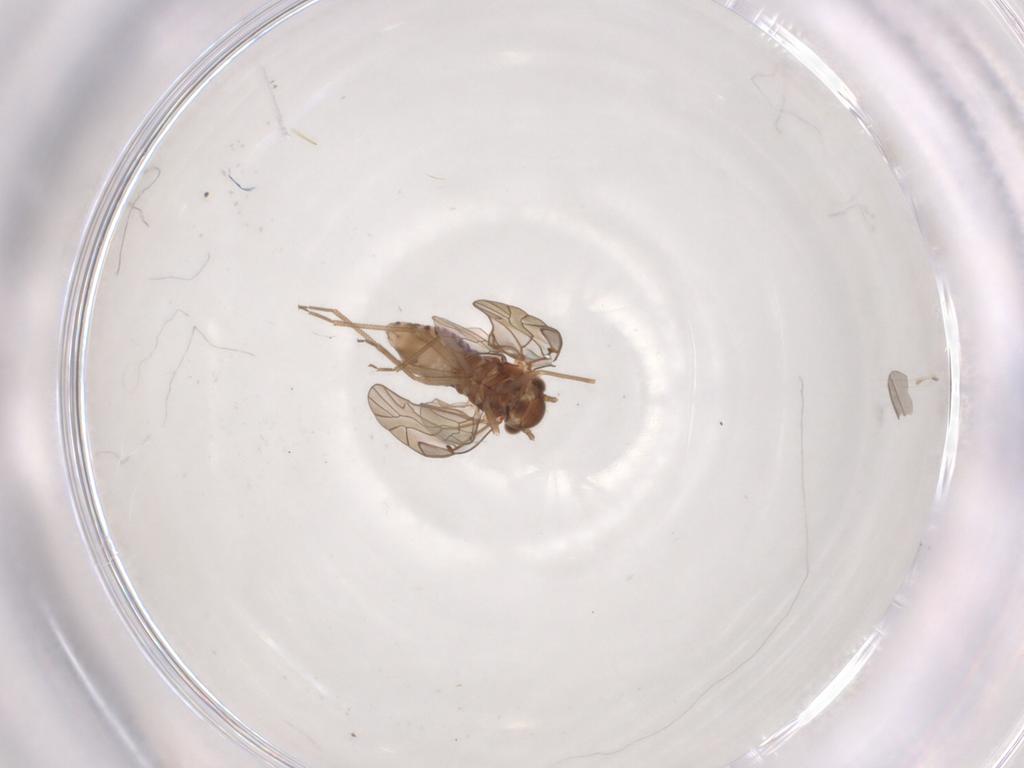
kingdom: Animalia
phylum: Arthropoda
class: Insecta
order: Psocodea
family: Lachesillidae
